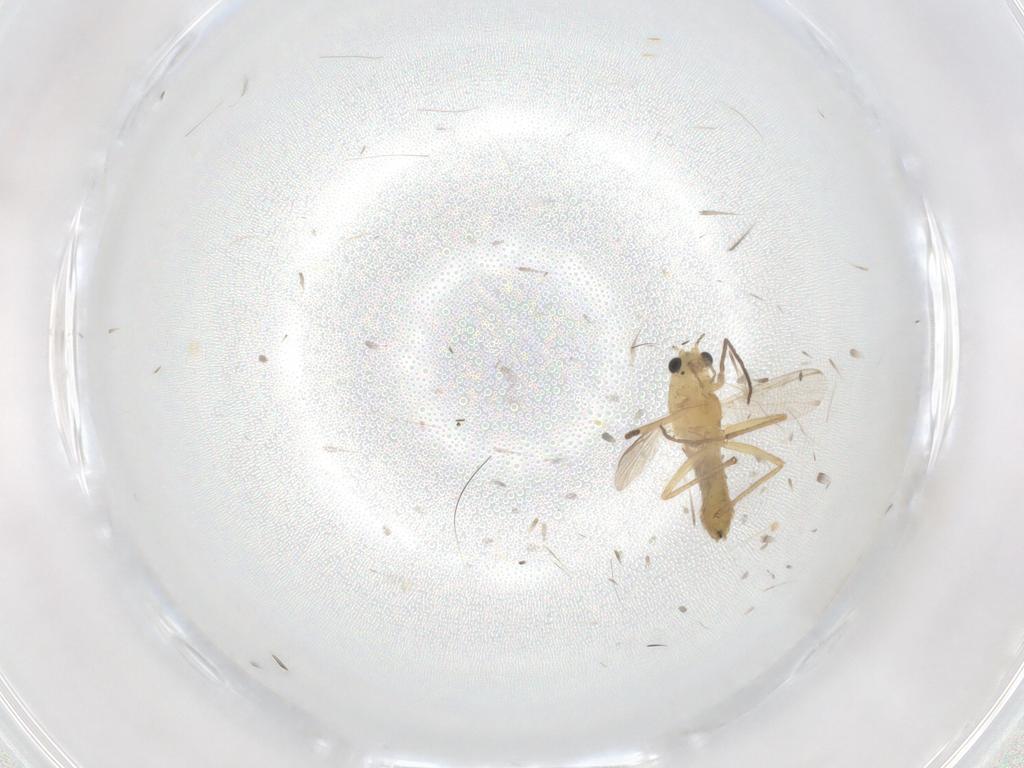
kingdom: Animalia
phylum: Arthropoda
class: Insecta
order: Diptera
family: Chironomidae
